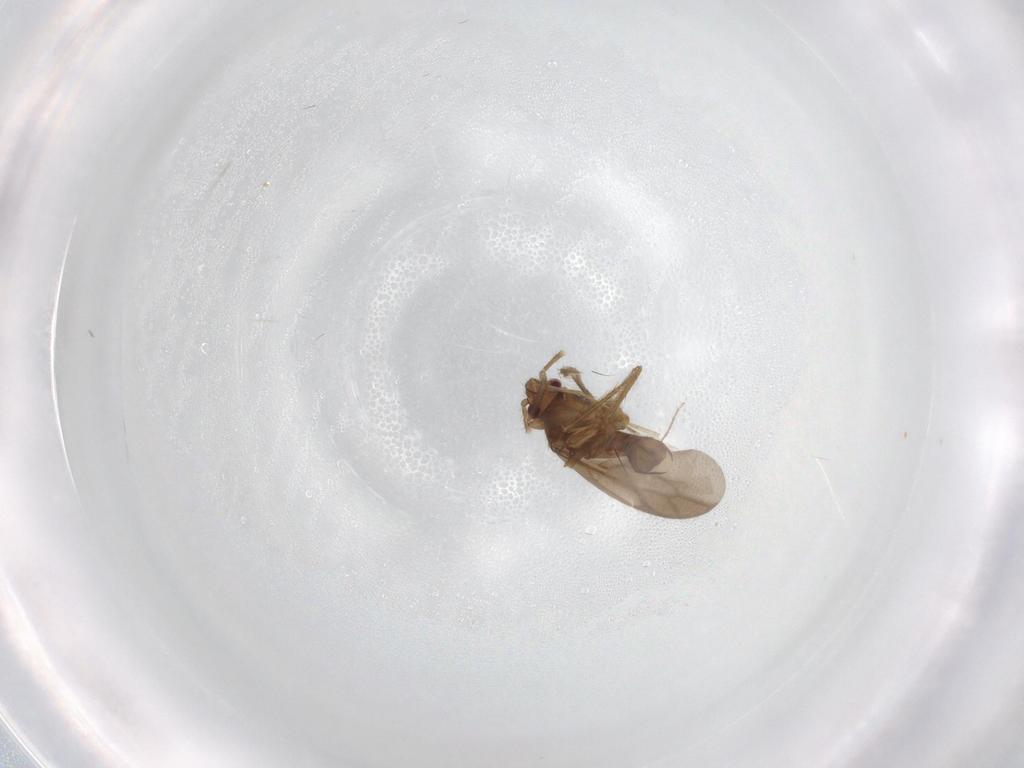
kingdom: Animalia
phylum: Arthropoda
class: Insecta
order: Hemiptera
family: Ceratocombidae
